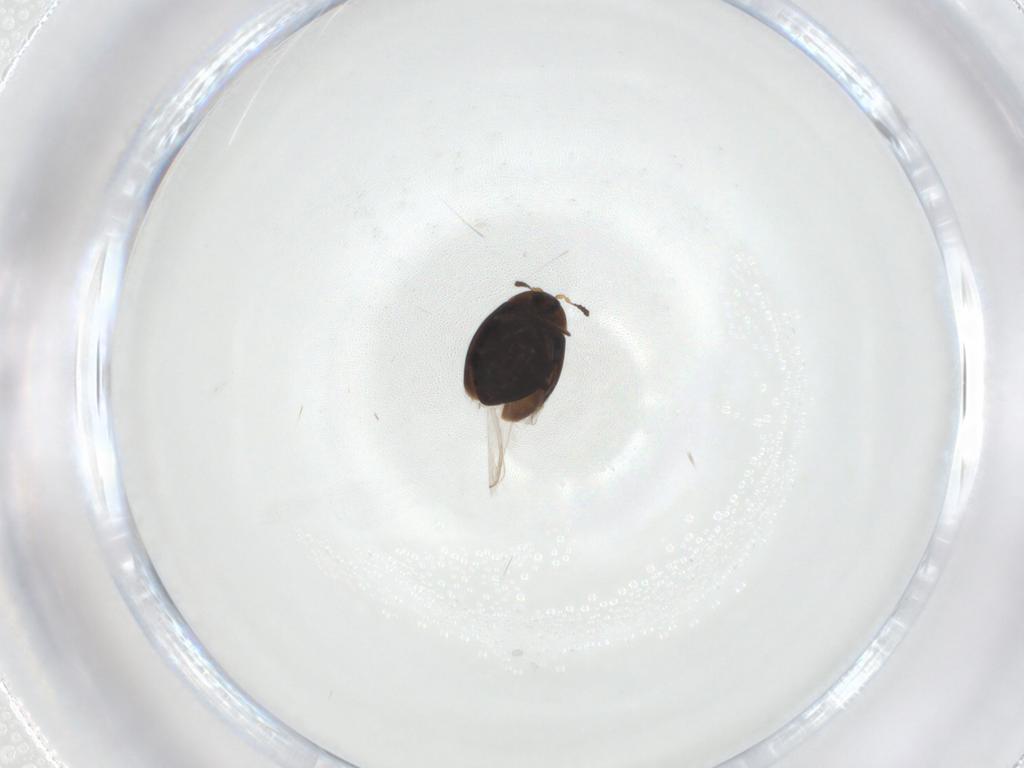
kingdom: Animalia
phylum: Arthropoda
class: Insecta
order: Coleoptera
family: Corylophidae
